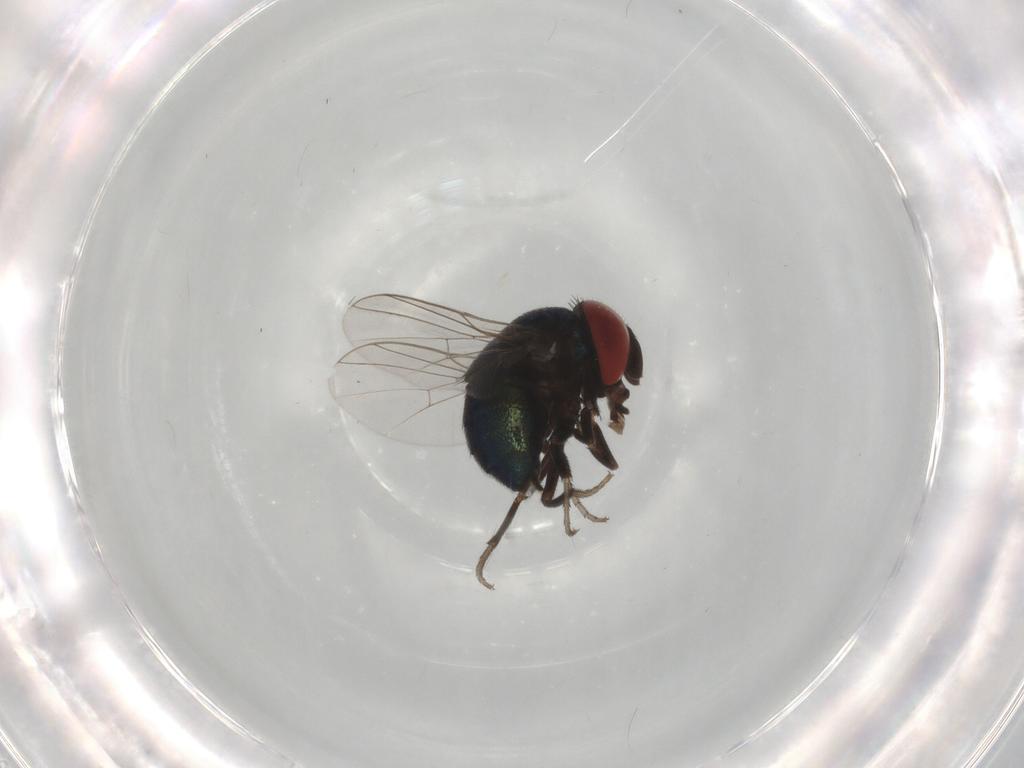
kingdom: Animalia
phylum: Arthropoda
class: Insecta
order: Diptera
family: Cryptochetidae
